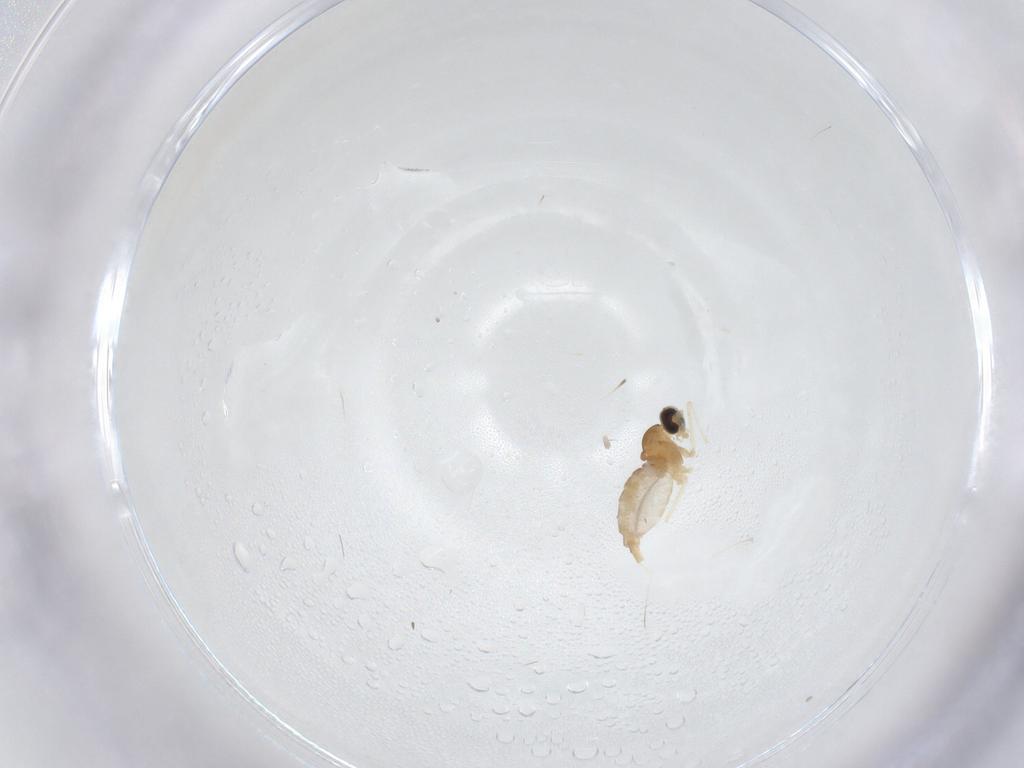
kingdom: Animalia
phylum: Arthropoda
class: Insecta
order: Diptera
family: Cecidomyiidae
